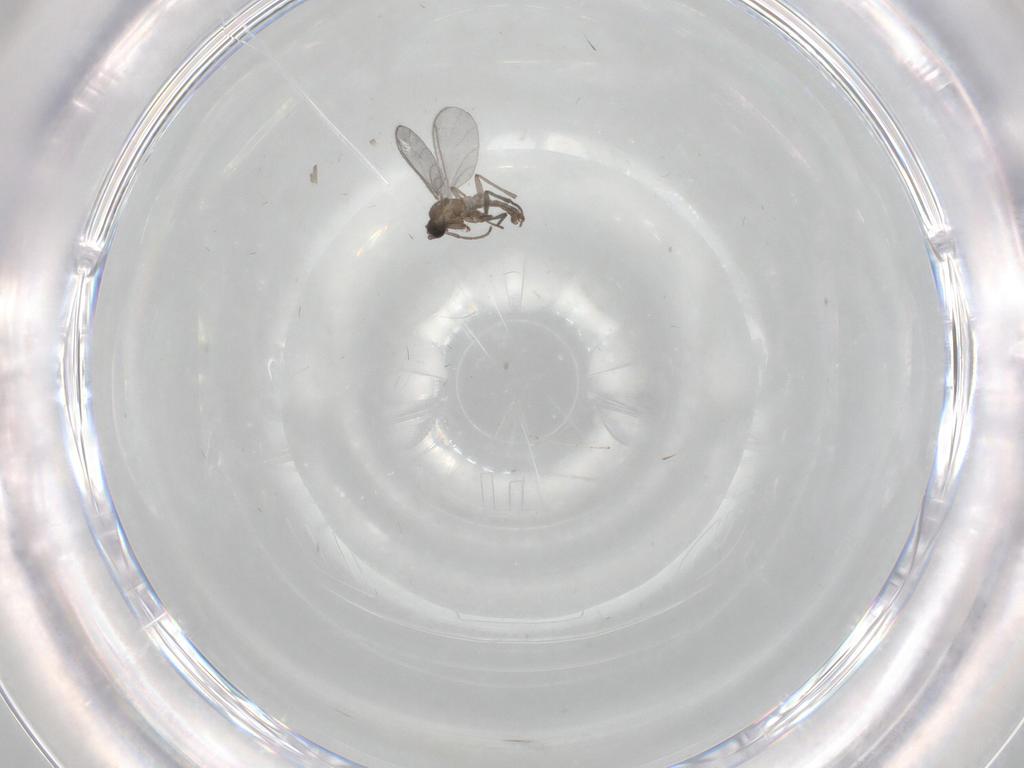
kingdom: Animalia
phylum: Arthropoda
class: Insecta
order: Diptera
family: Sciaridae
